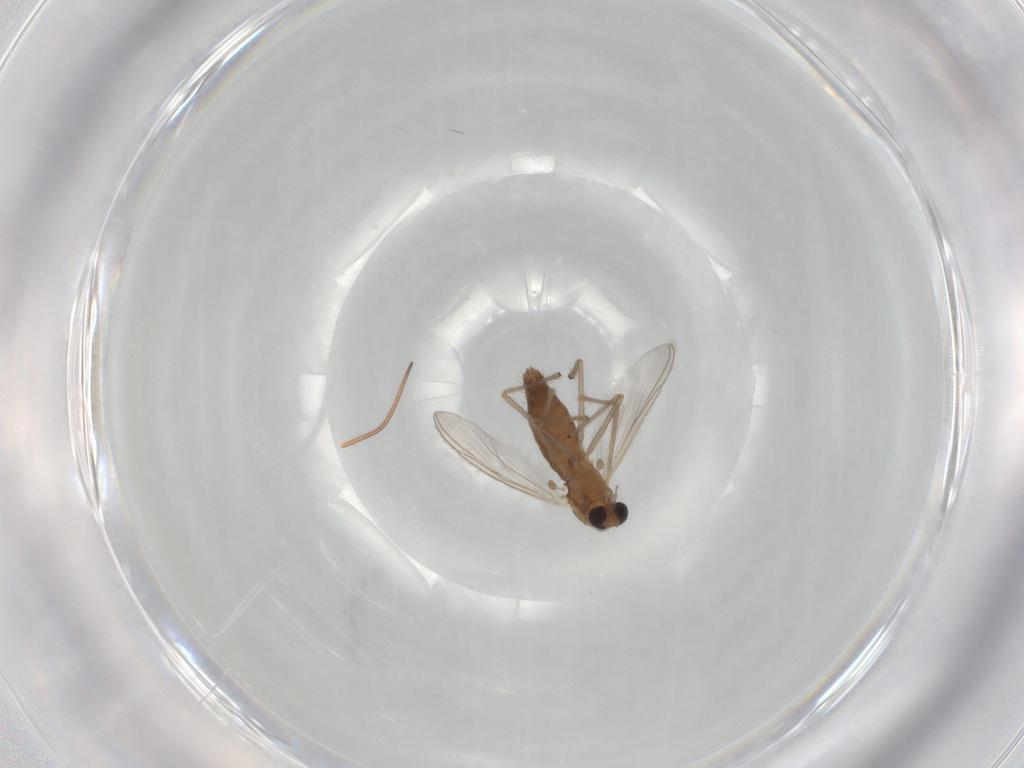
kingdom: Animalia
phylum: Arthropoda
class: Insecta
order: Diptera
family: Chironomidae
